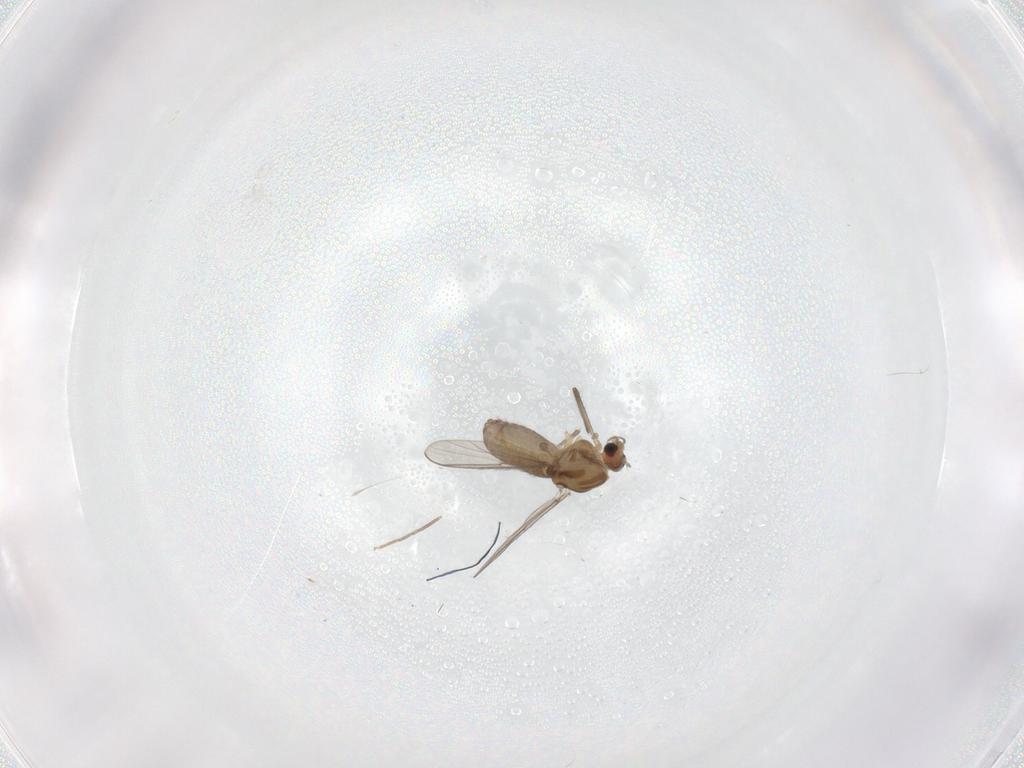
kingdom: Animalia
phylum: Arthropoda
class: Insecta
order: Diptera
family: Chironomidae
